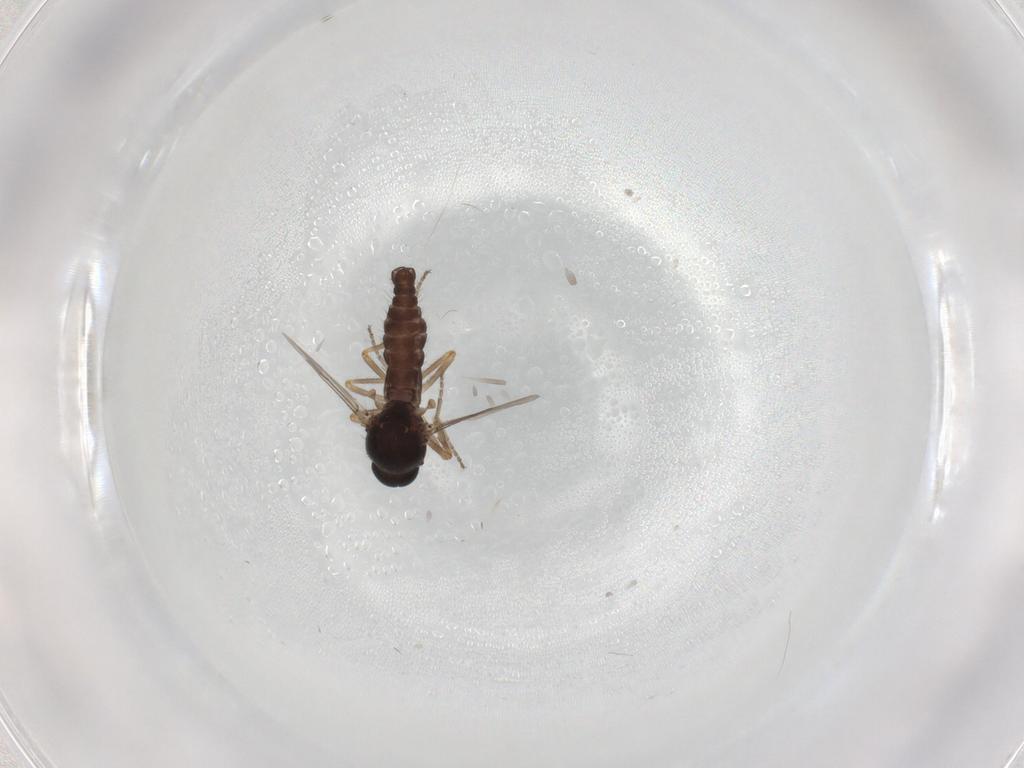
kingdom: Animalia
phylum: Arthropoda
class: Insecta
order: Diptera
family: Ceratopogonidae
